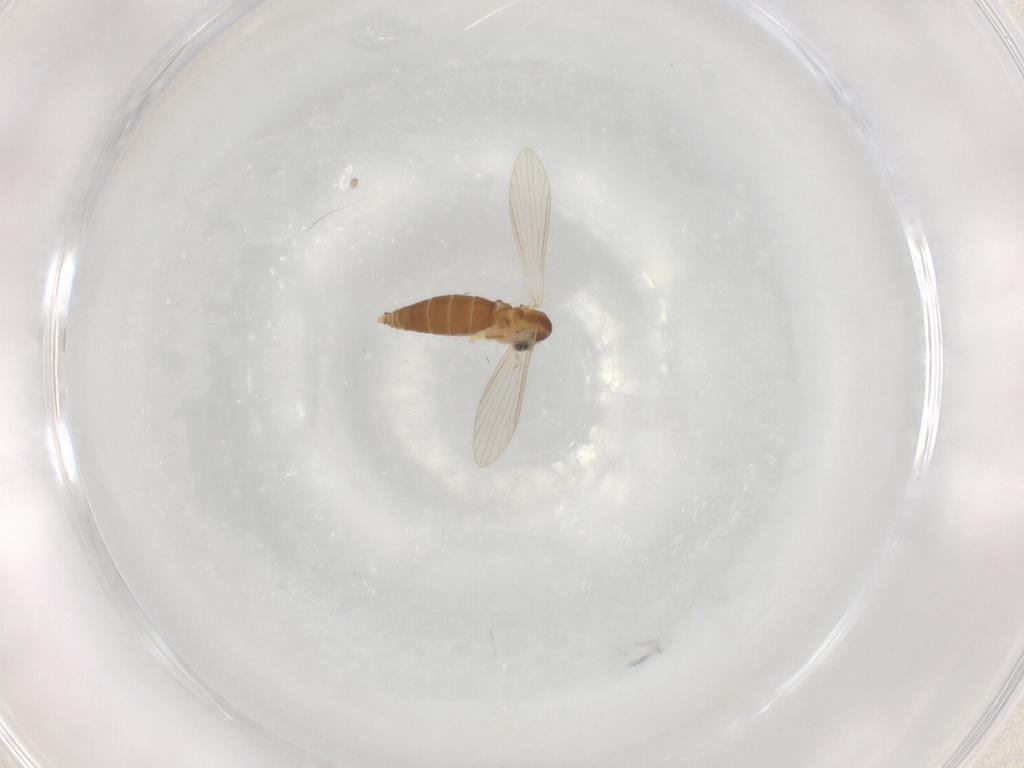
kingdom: Animalia
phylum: Arthropoda
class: Insecta
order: Diptera
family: Psychodidae
